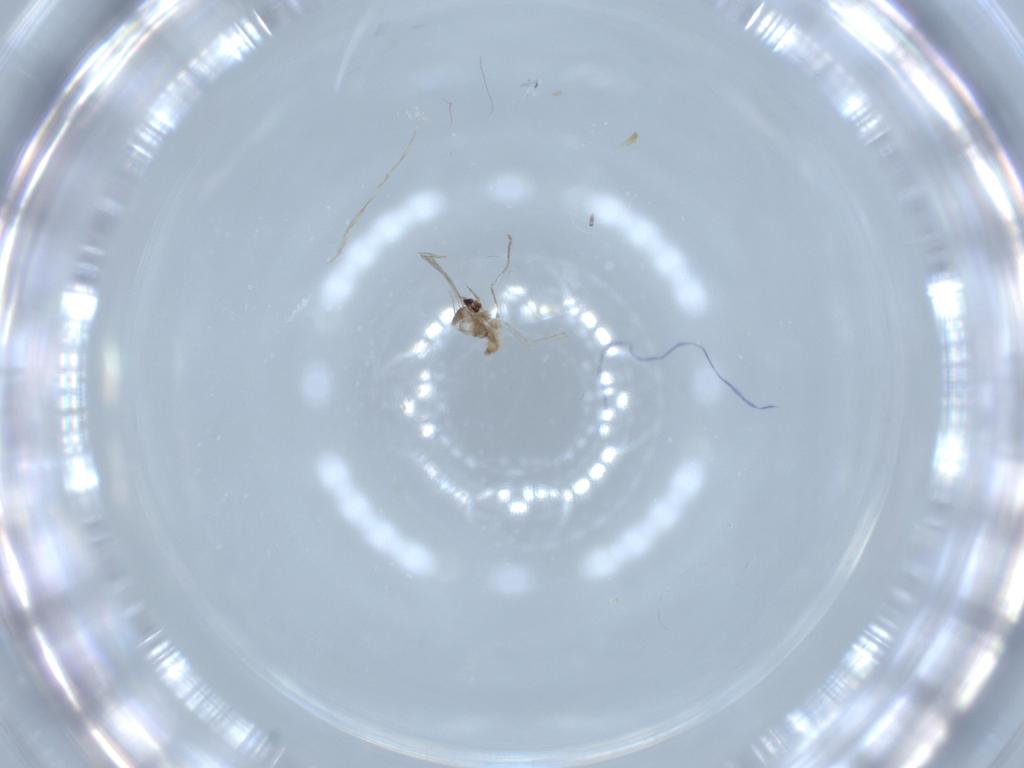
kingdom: Animalia
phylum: Arthropoda
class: Insecta
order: Diptera
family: Cecidomyiidae
